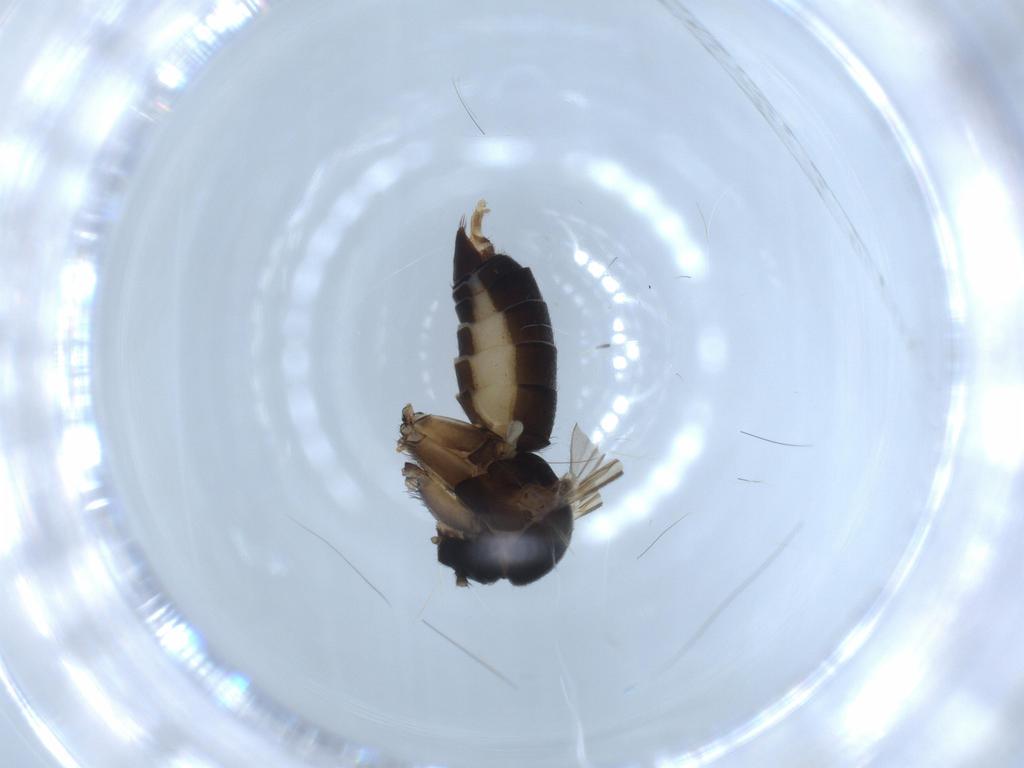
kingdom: Animalia
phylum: Arthropoda
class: Insecta
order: Diptera
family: Mycetophilidae
